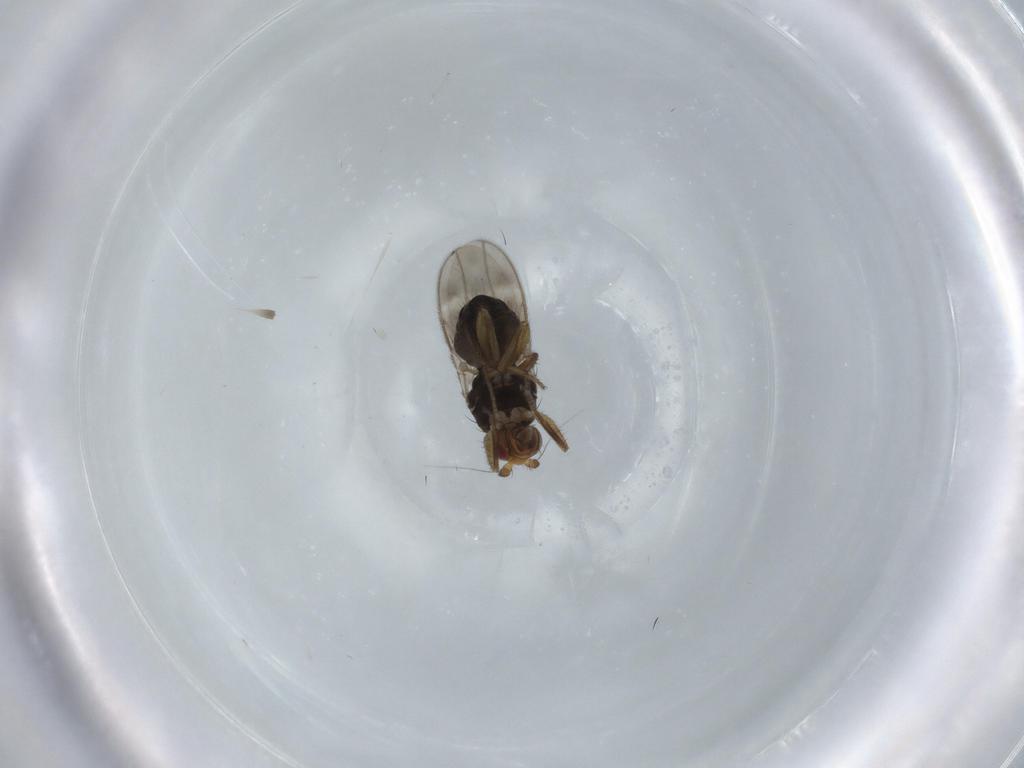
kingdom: Animalia
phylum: Arthropoda
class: Insecta
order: Diptera
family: Sphaeroceridae
